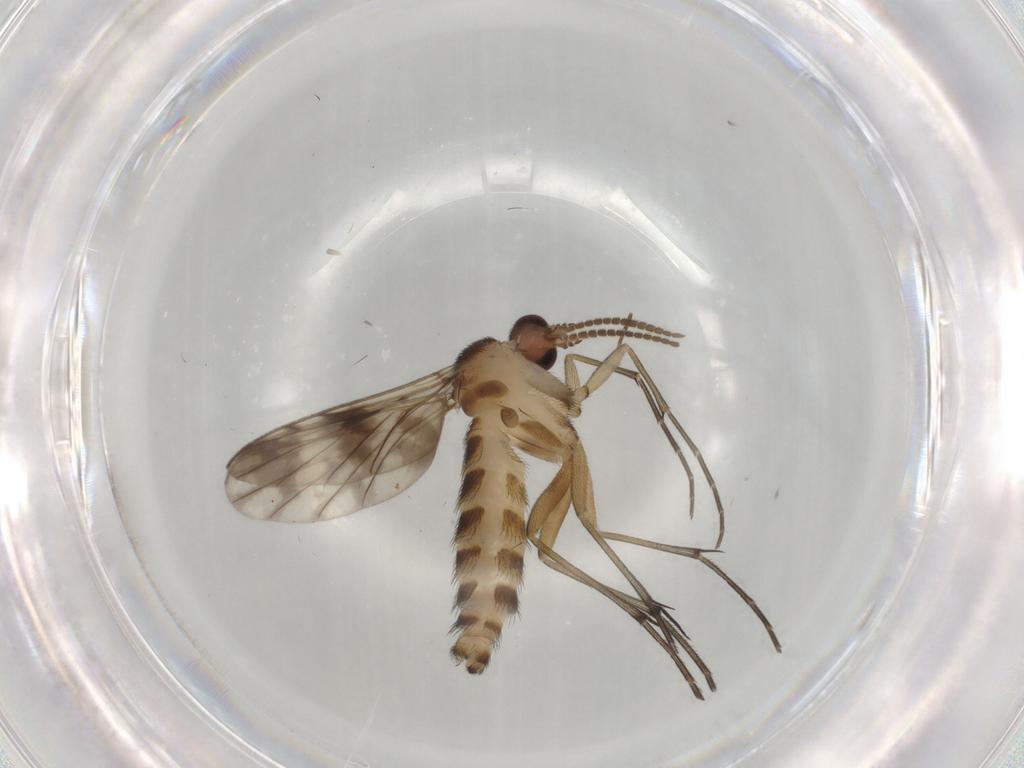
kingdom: Animalia
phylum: Arthropoda
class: Insecta
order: Diptera
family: Keroplatidae
